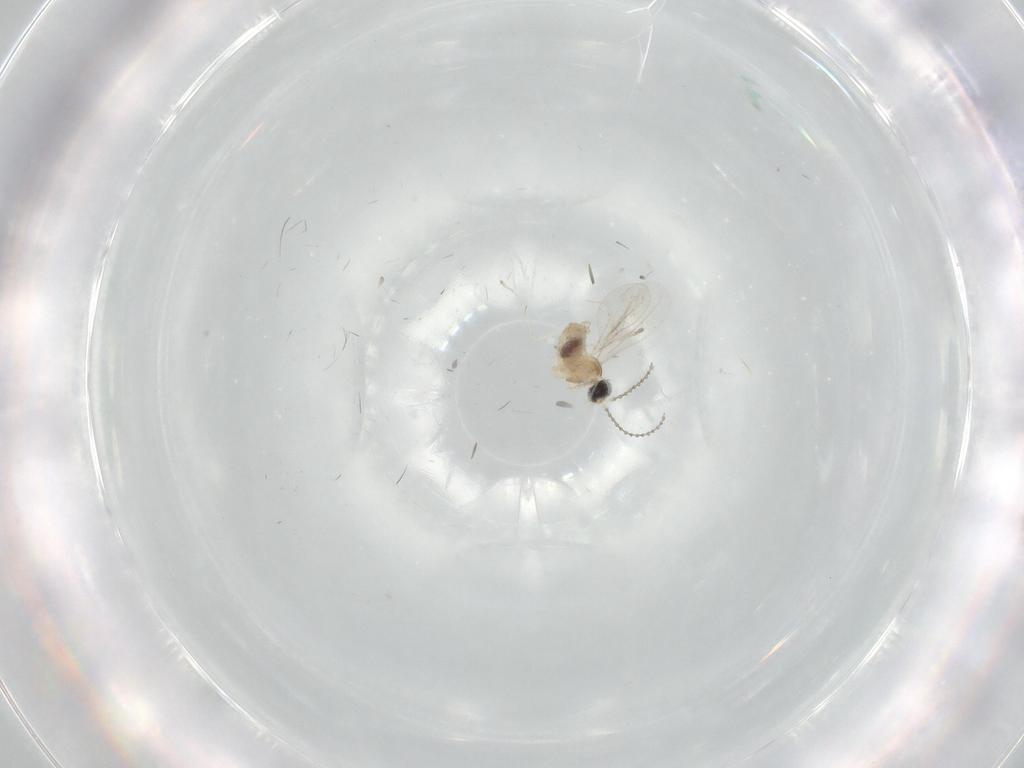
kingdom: Animalia
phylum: Arthropoda
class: Insecta
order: Diptera
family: Cecidomyiidae
